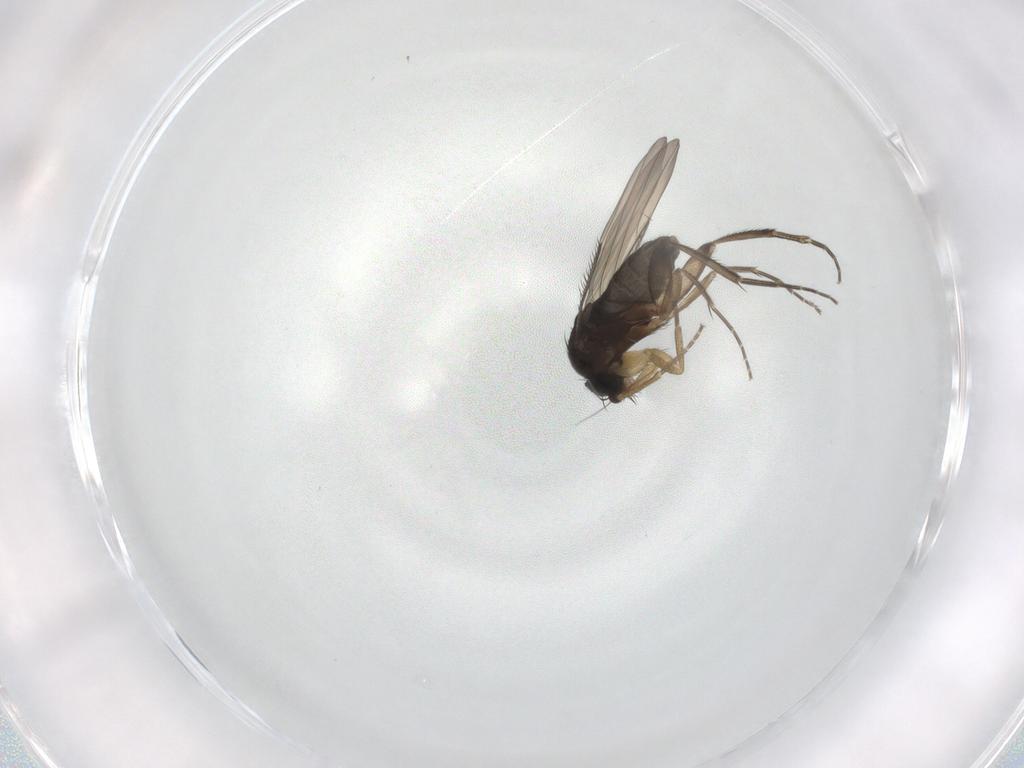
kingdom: Animalia
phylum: Arthropoda
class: Insecta
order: Diptera
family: Phoridae
